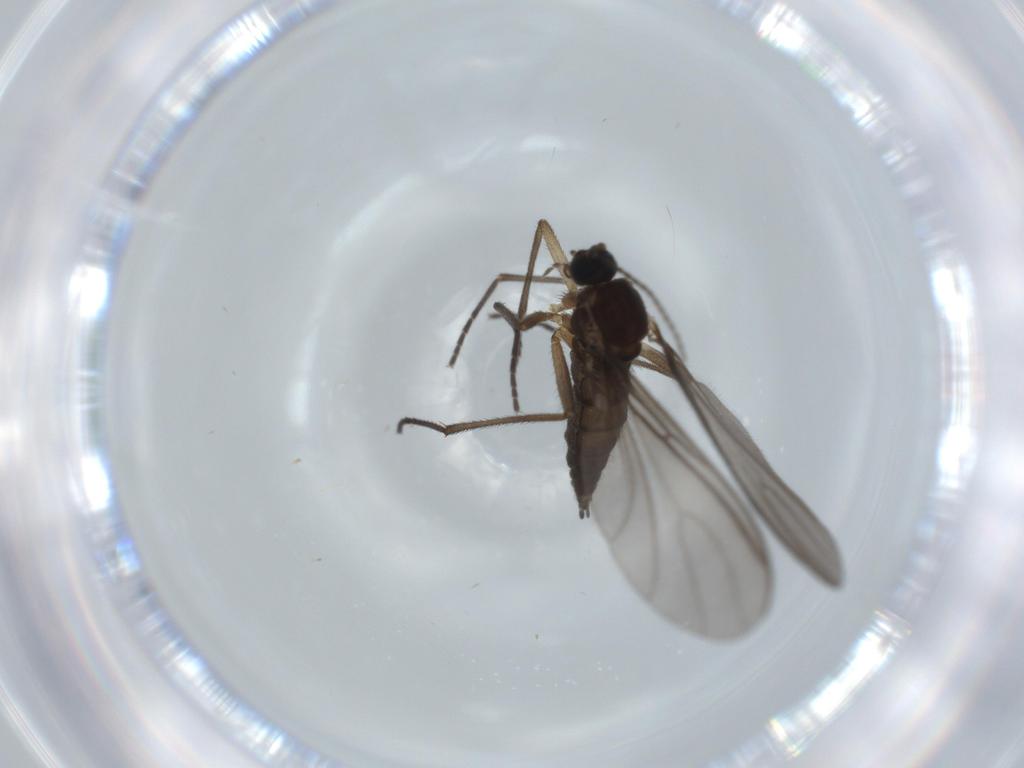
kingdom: Animalia
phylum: Arthropoda
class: Insecta
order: Diptera
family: Sciaridae
